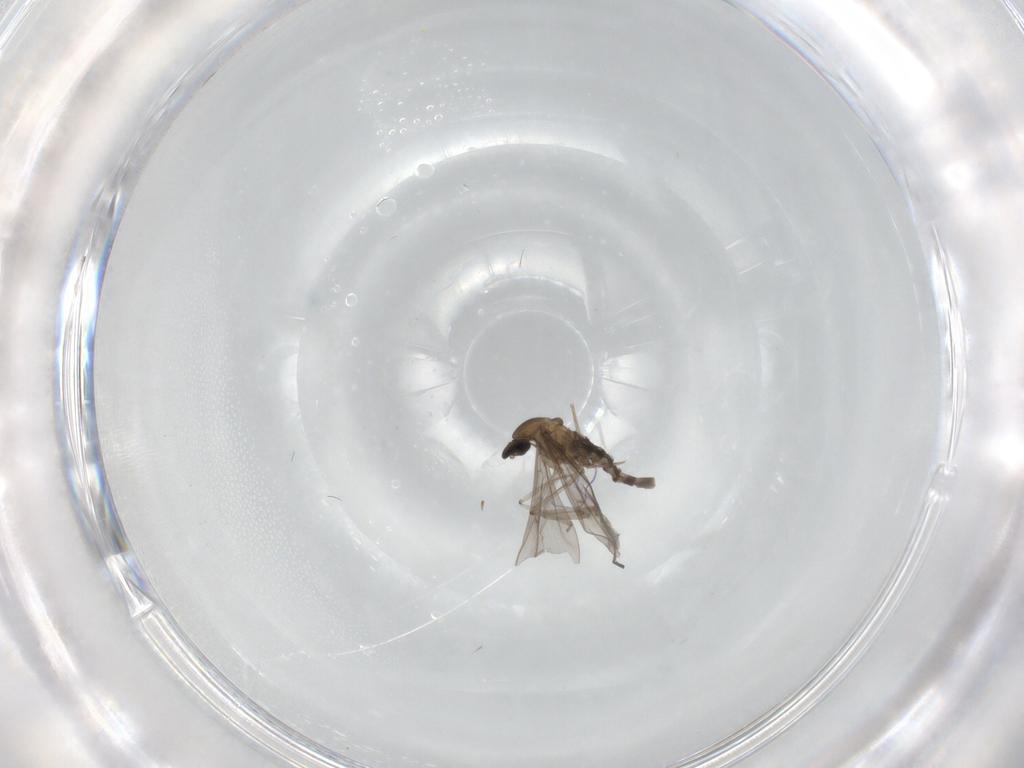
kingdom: Animalia
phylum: Arthropoda
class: Insecta
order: Diptera
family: Cecidomyiidae
